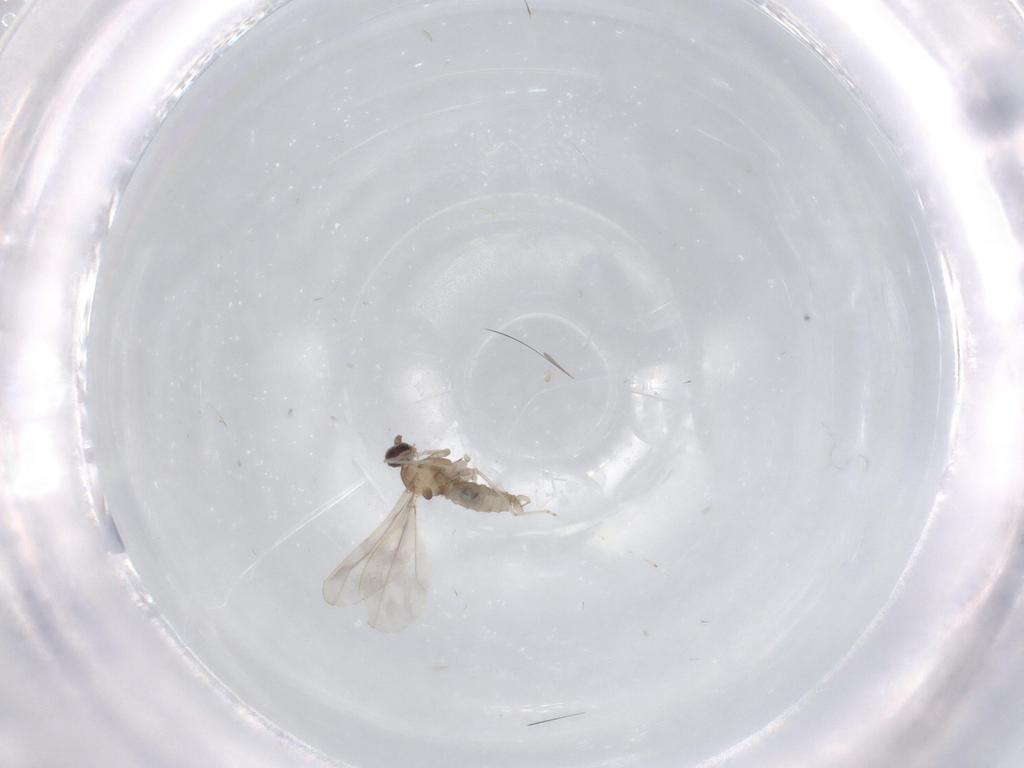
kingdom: Animalia
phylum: Arthropoda
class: Insecta
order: Diptera
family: Cecidomyiidae
